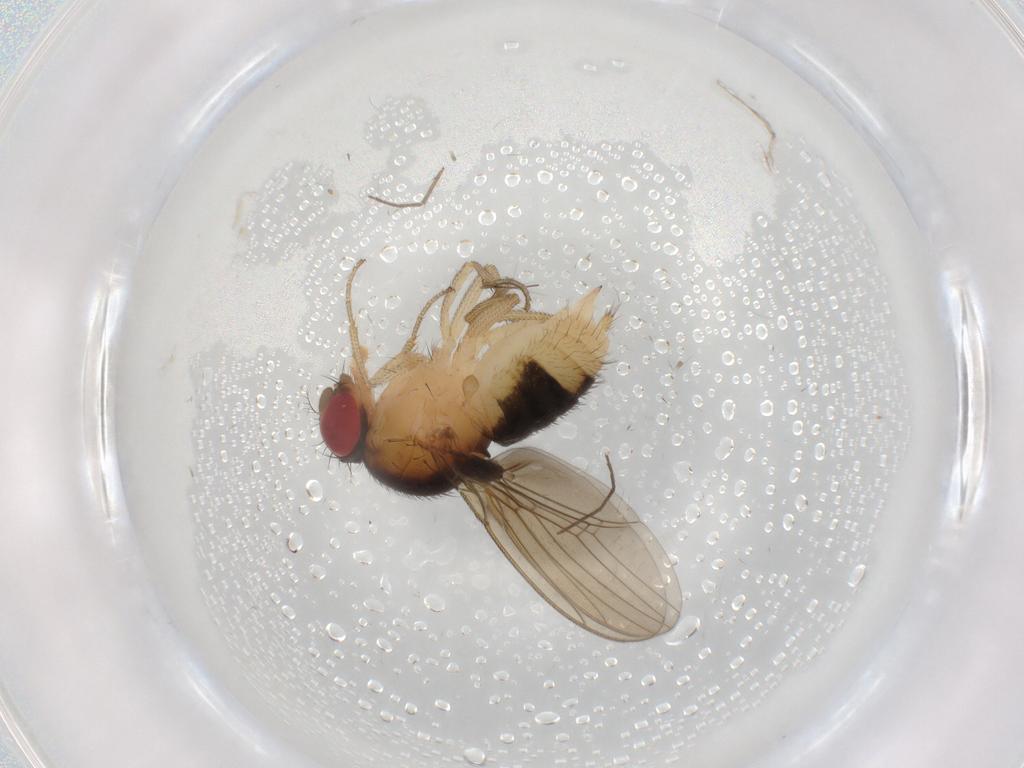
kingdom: Animalia
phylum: Arthropoda
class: Insecta
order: Diptera
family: Drosophilidae
